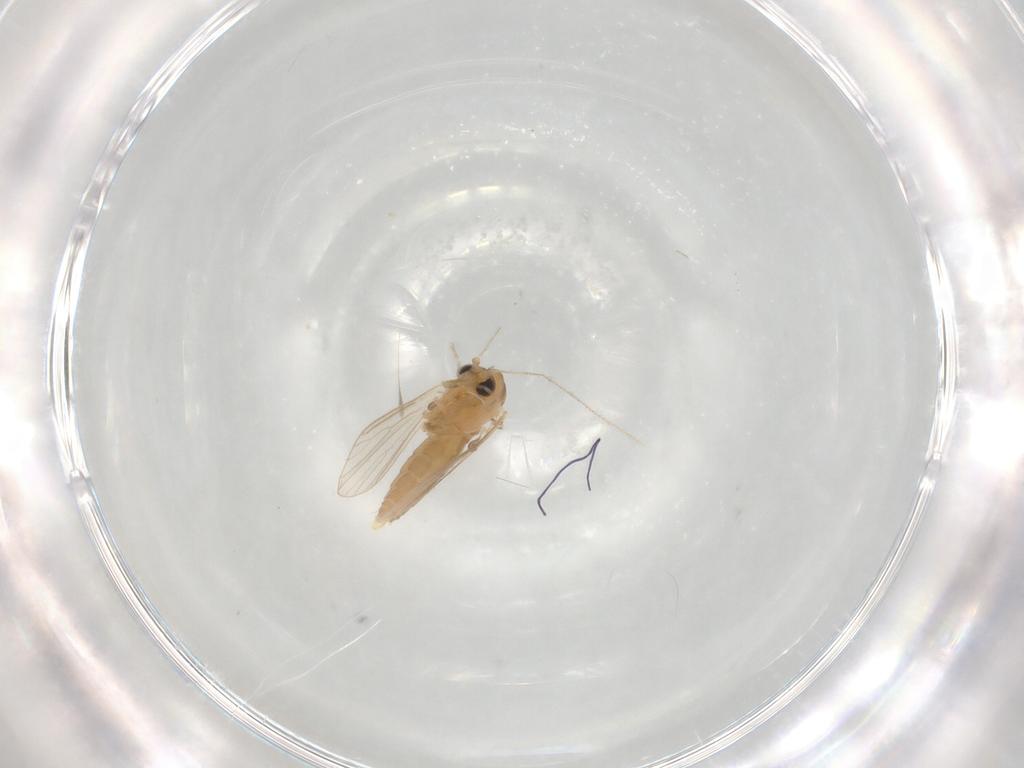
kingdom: Animalia
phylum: Arthropoda
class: Insecta
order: Diptera
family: Psychodidae
